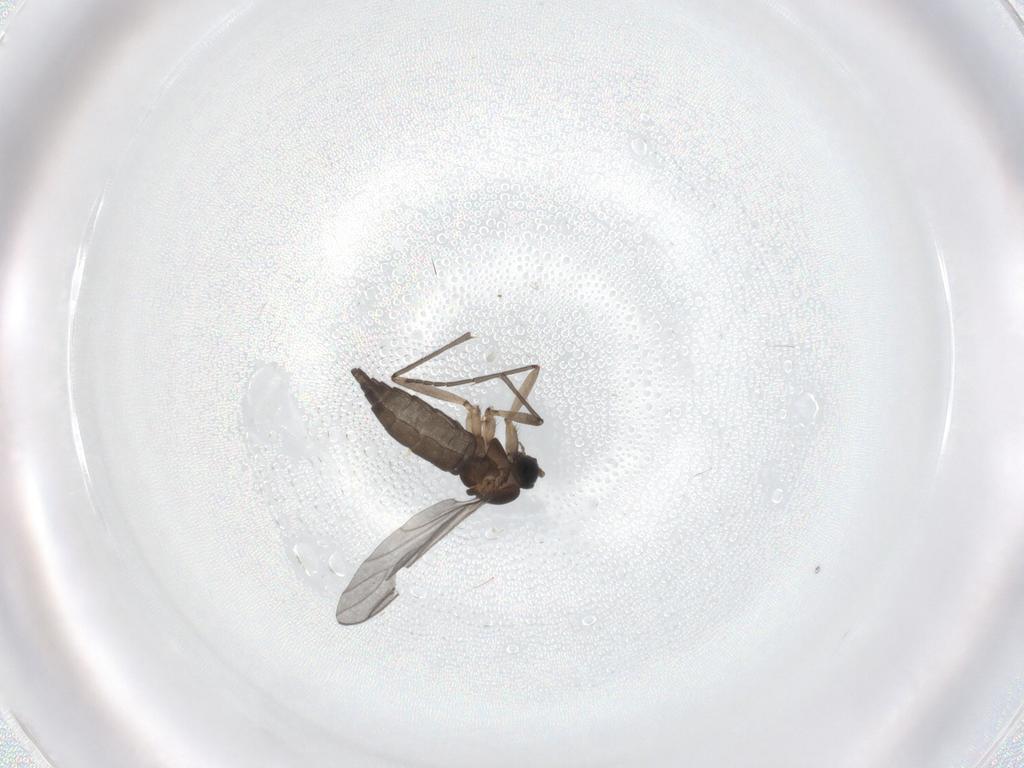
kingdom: Animalia
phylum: Arthropoda
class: Insecta
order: Diptera
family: Sciaridae
